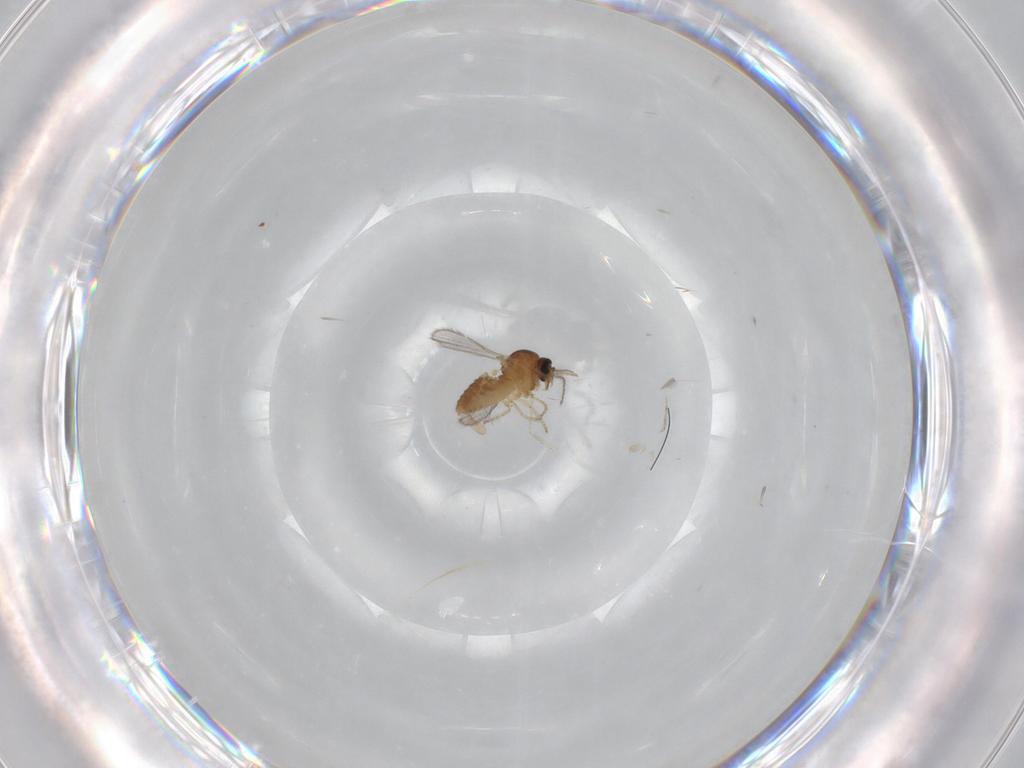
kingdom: Animalia
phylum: Arthropoda
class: Insecta
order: Diptera
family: Ceratopogonidae
